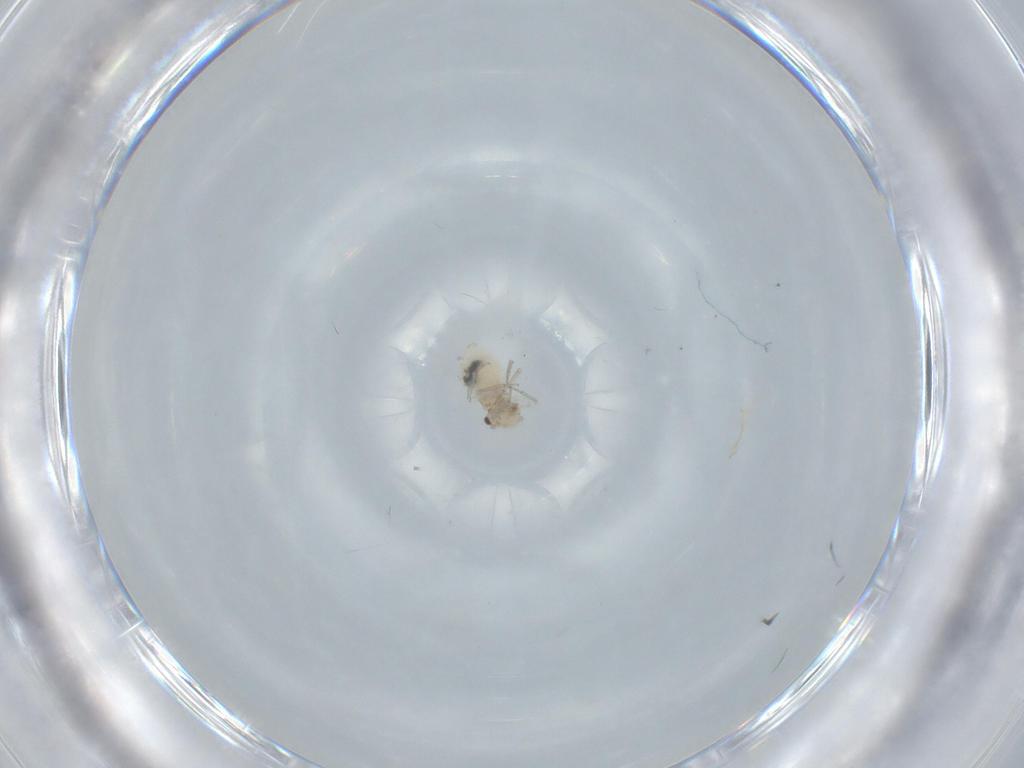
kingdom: Animalia
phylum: Arthropoda
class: Insecta
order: Psocodea
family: Lachesillidae
